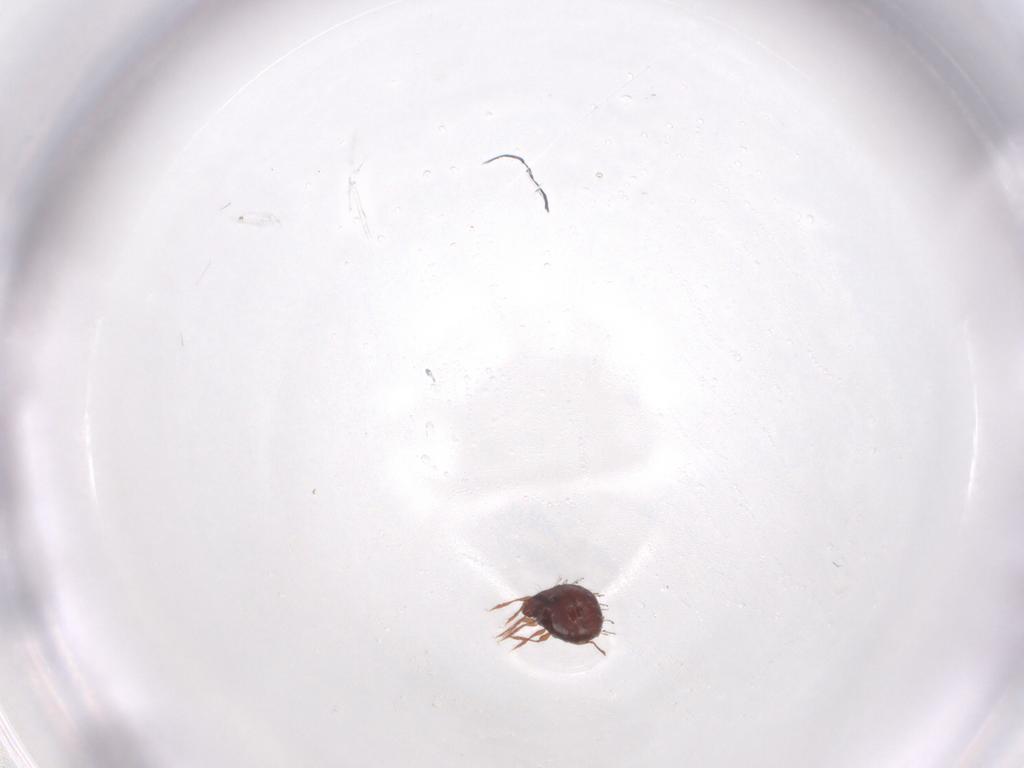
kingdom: Animalia
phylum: Arthropoda
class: Arachnida
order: Sarcoptiformes
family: Caloppiidae
